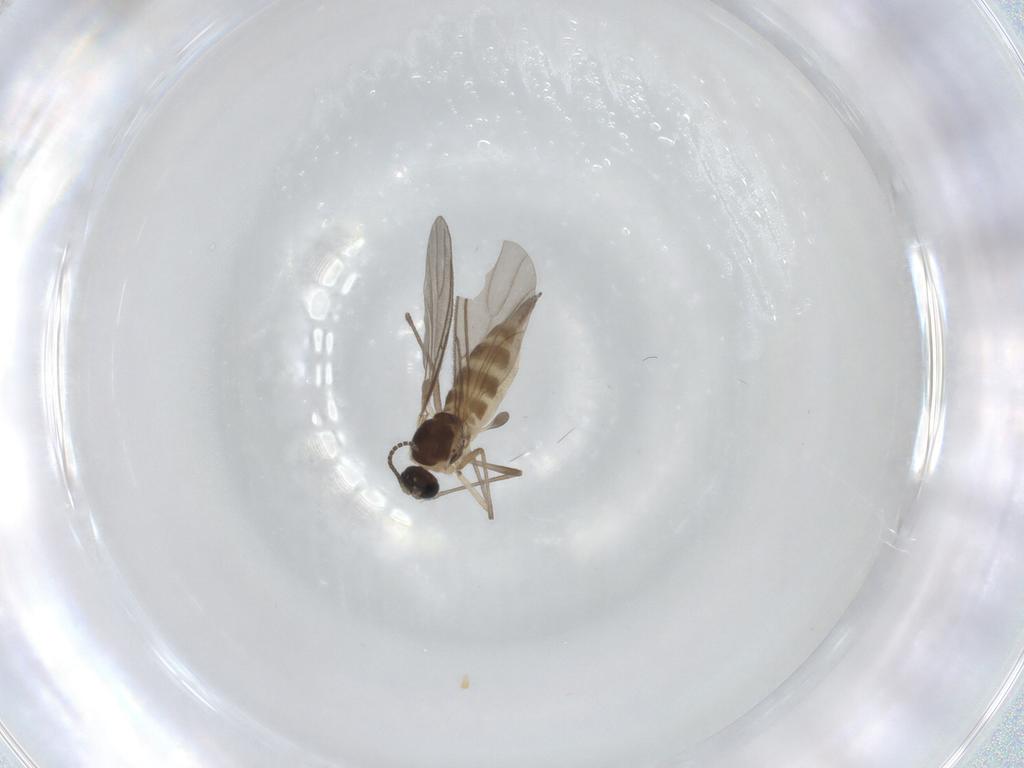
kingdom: Animalia
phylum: Arthropoda
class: Insecta
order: Diptera
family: Sciaridae
